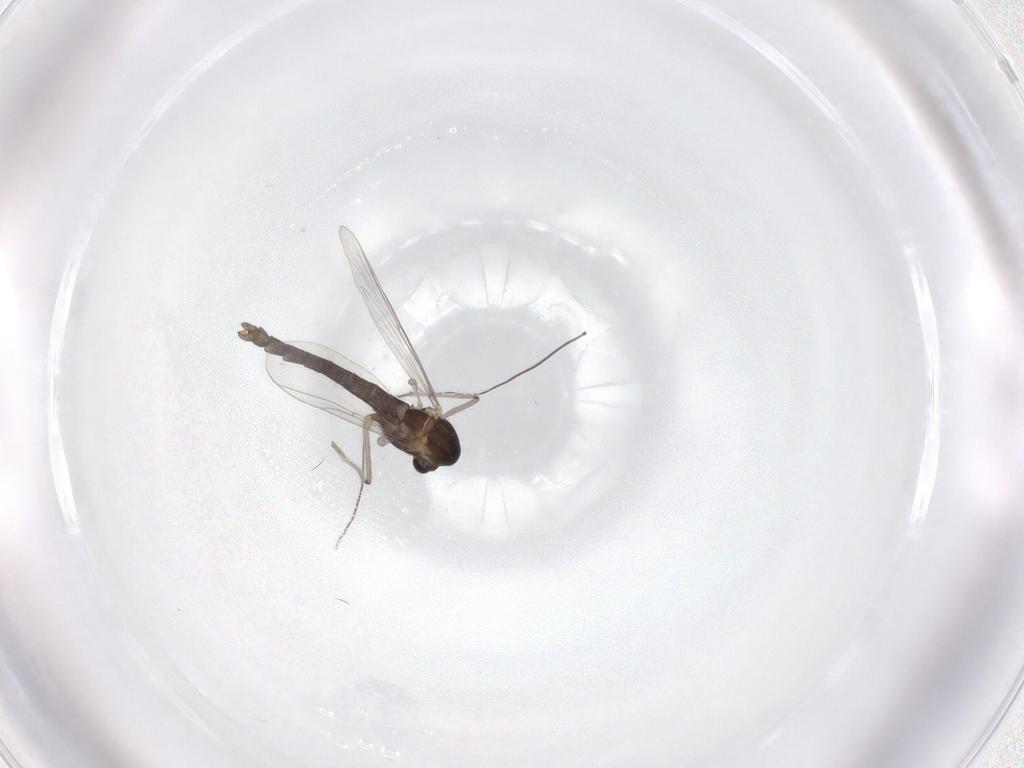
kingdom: Animalia
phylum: Arthropoda
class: Insecta
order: Diptera
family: Chironomidae
